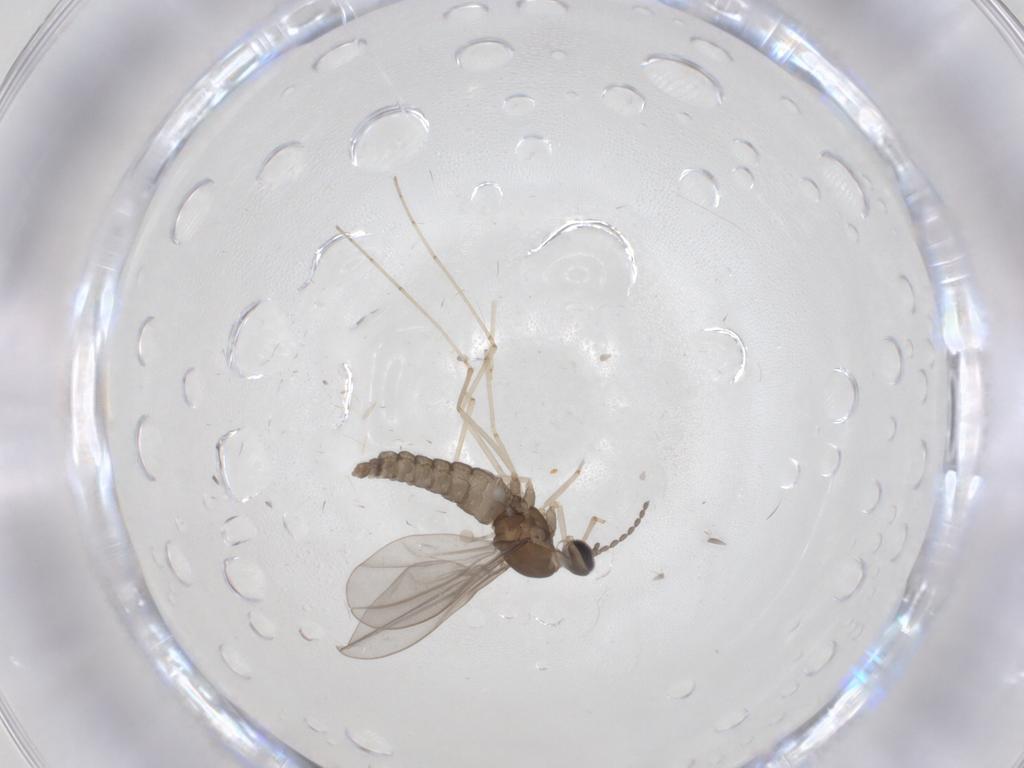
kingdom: Animalia
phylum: Arthropoda
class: Insecta
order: Diptera
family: Cecidomyiidae
